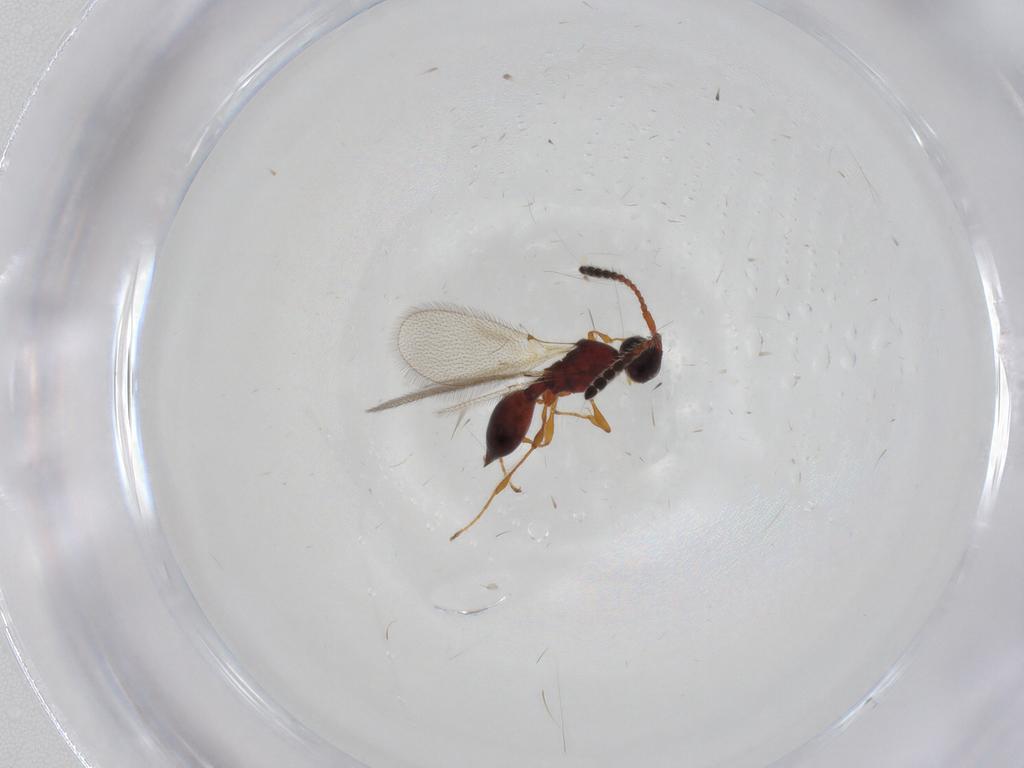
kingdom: Animalia
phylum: Arthropoda
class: Insecta
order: Hymenoptera
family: Diapriidae
